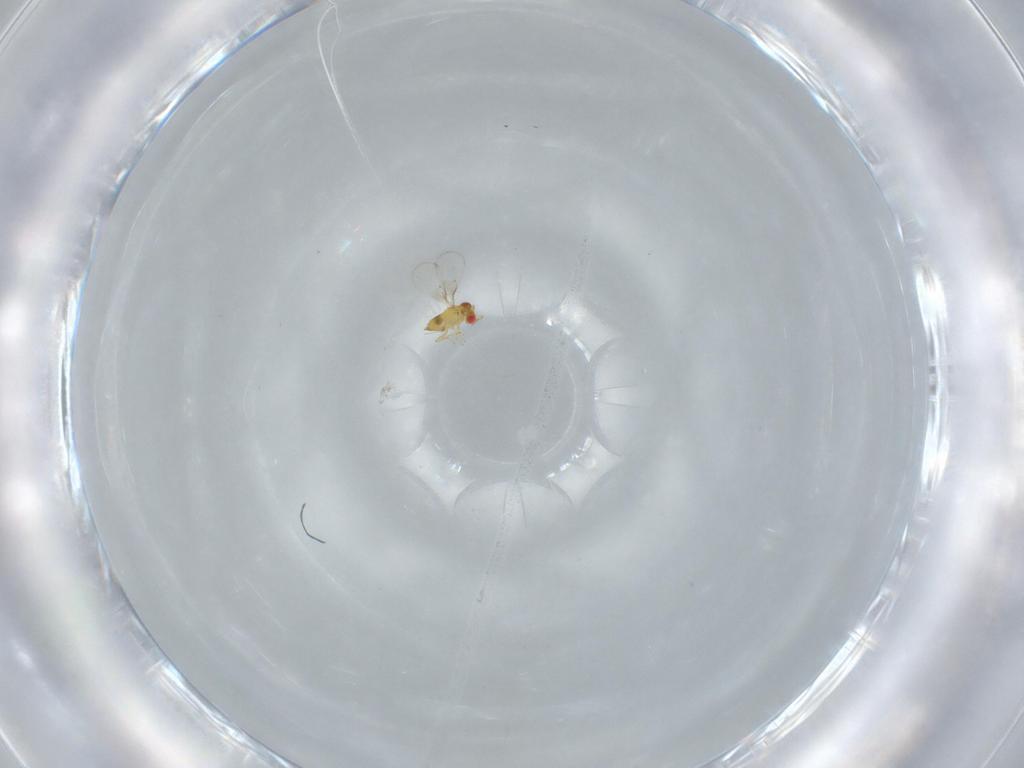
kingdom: Animalia
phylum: Arthropoda
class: Insecta
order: Hymenoptera
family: Trichogrammatidae
